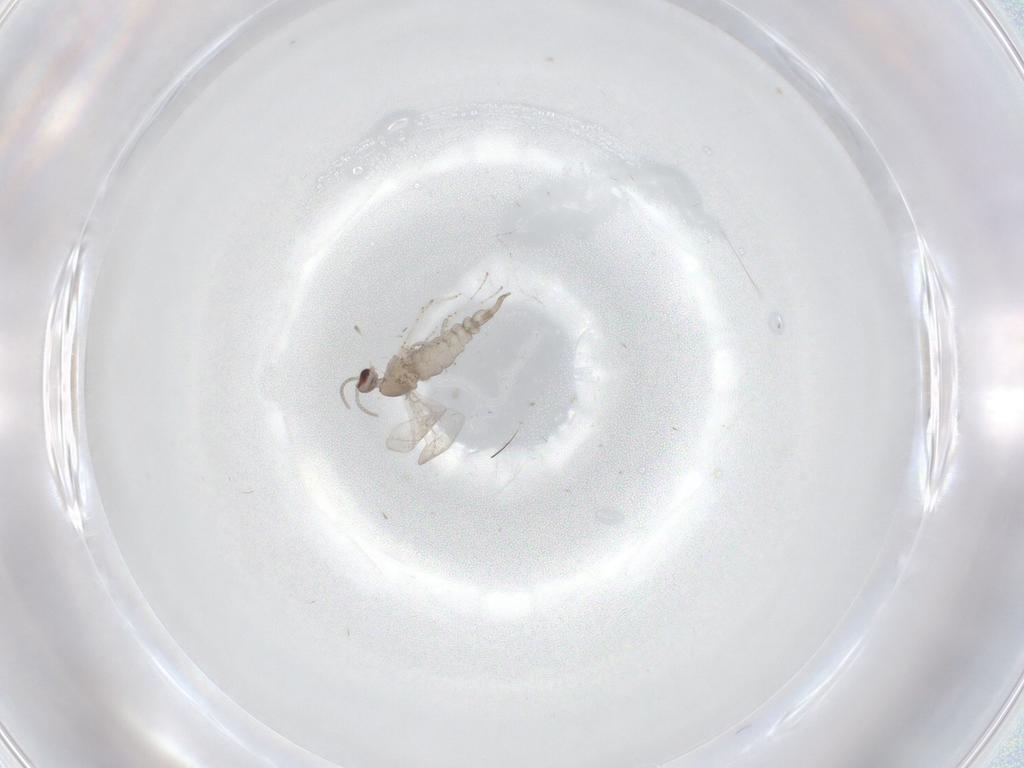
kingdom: Animalia
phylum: Arthropoda
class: Insecta
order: Diptera
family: Cecidomyiidae
